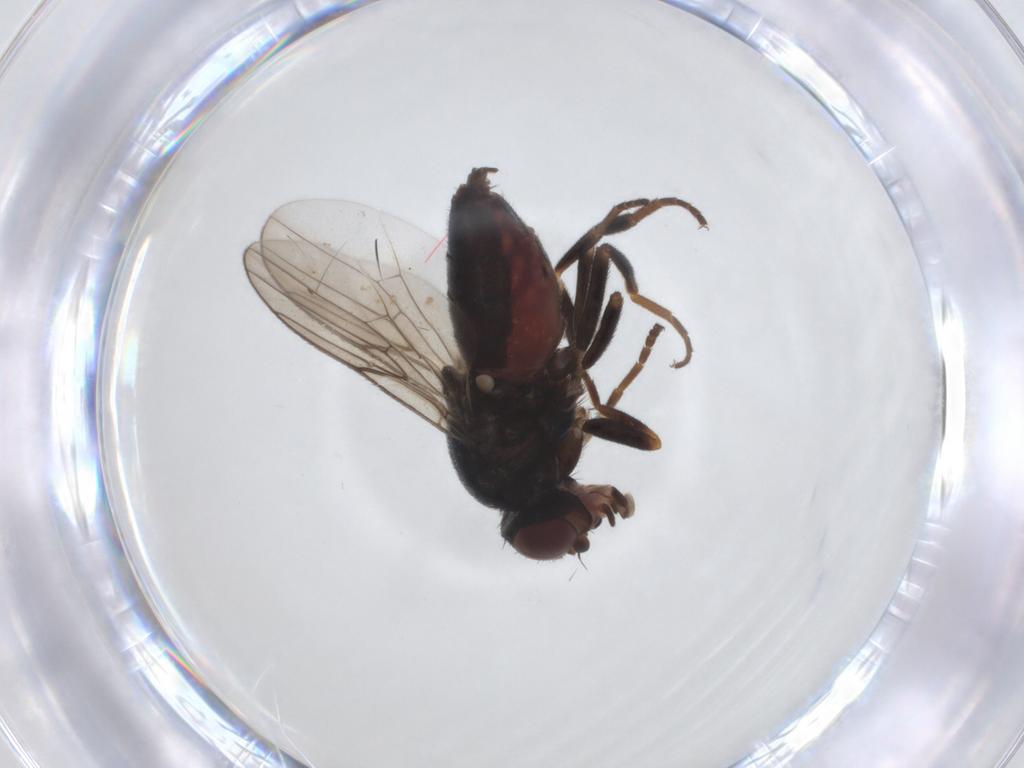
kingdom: Animalia
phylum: Arthropoda
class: Insecta
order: Diptera
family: Chloropidae
